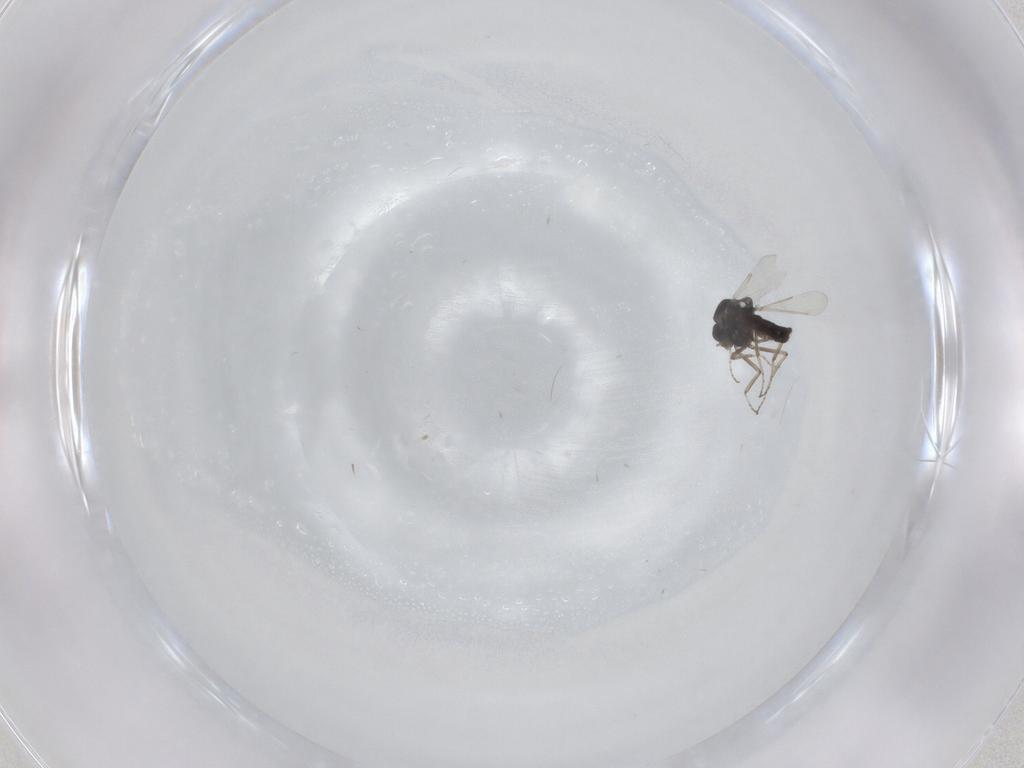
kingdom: Animalia
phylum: Arthropoda
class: Insecta
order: Diptera
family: Ceratopogonidae
